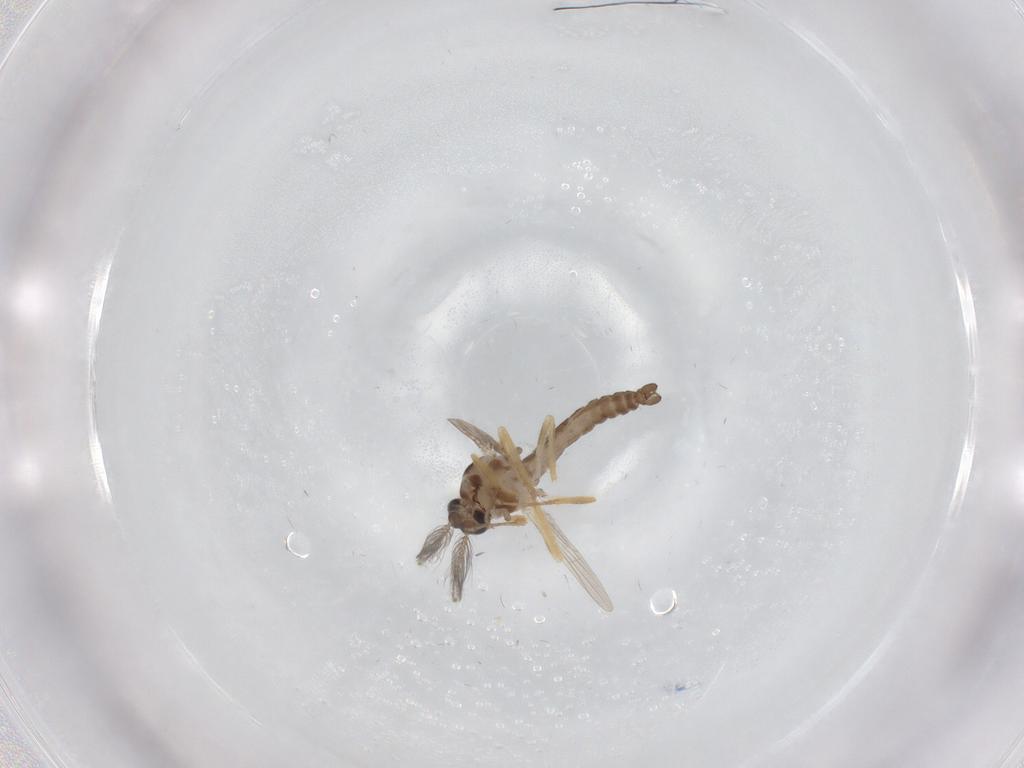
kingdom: Animalia
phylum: Arthropoda
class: Insecta
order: Diptera
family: Ceratopogonidae
